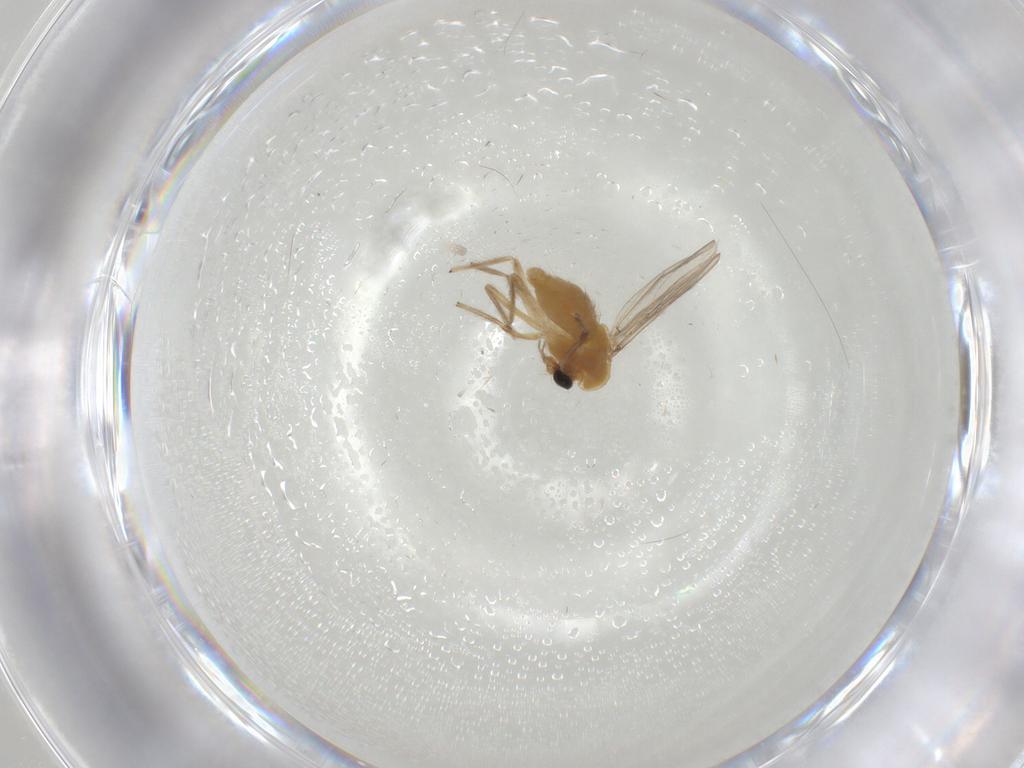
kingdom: Animalia
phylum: Arthropoda
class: Insecta
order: Diptera
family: Chironomidae
